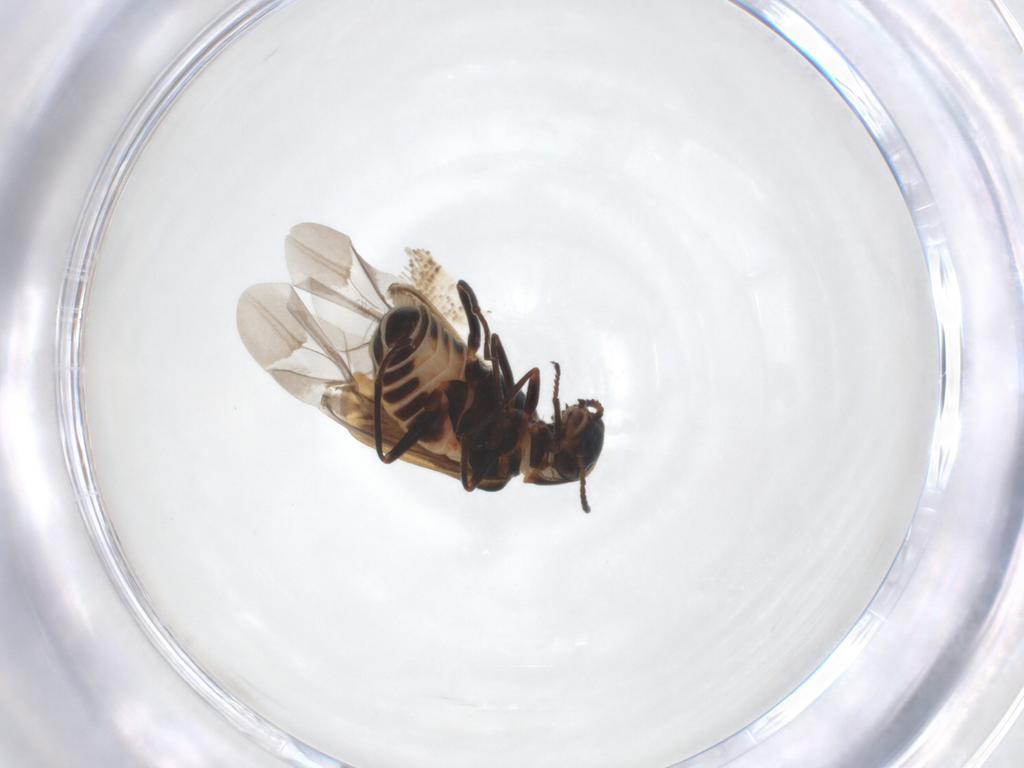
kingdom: Animalia
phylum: Arthropoda
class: Insecta
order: Coleoptera
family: Melyridae
